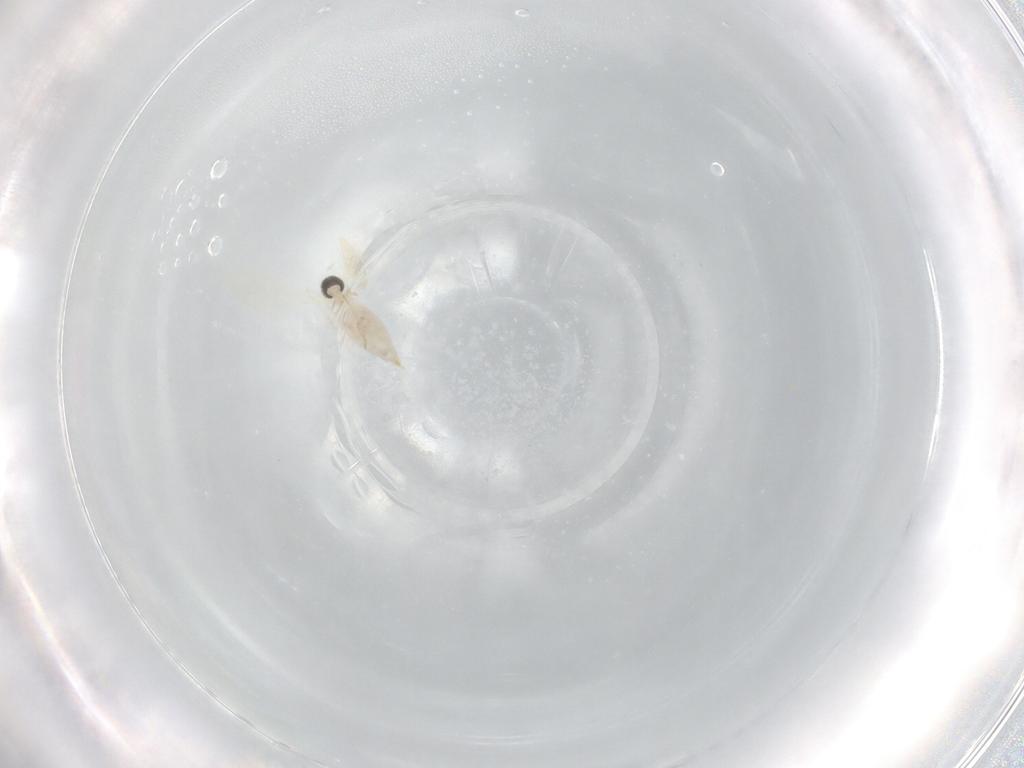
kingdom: Animalia
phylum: Arthropoda
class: Insecta
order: Diptera
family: Cecidomyiidae
